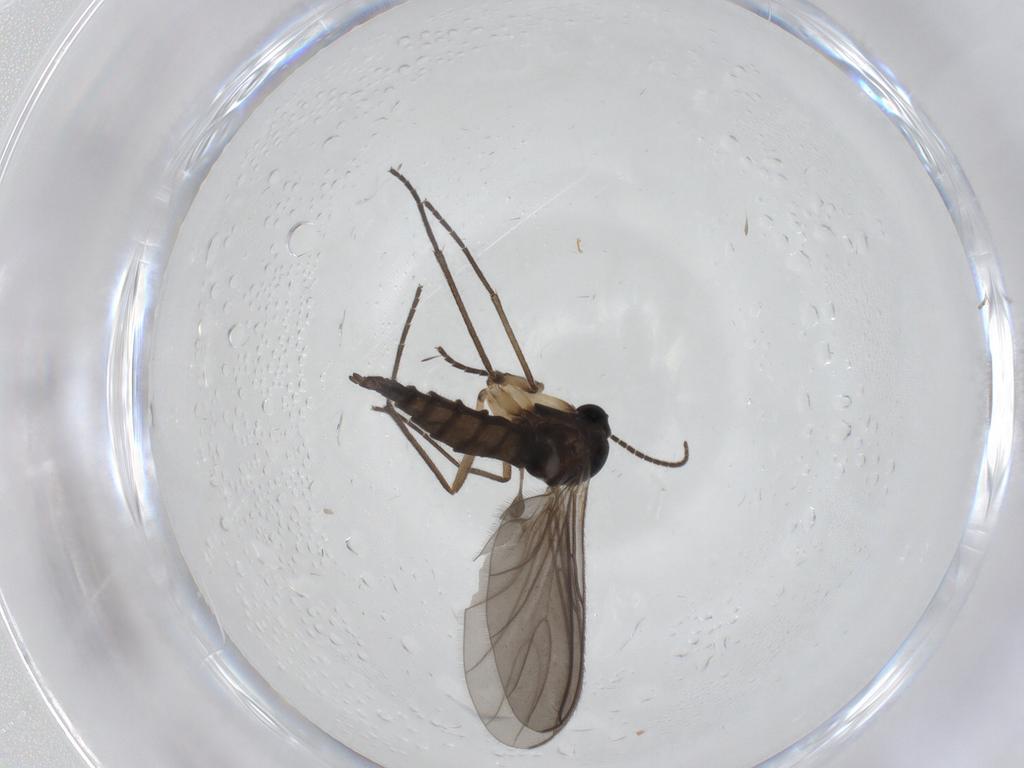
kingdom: Animalia
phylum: Arthropoda
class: Insecta
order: Diptera
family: Sciaridae
